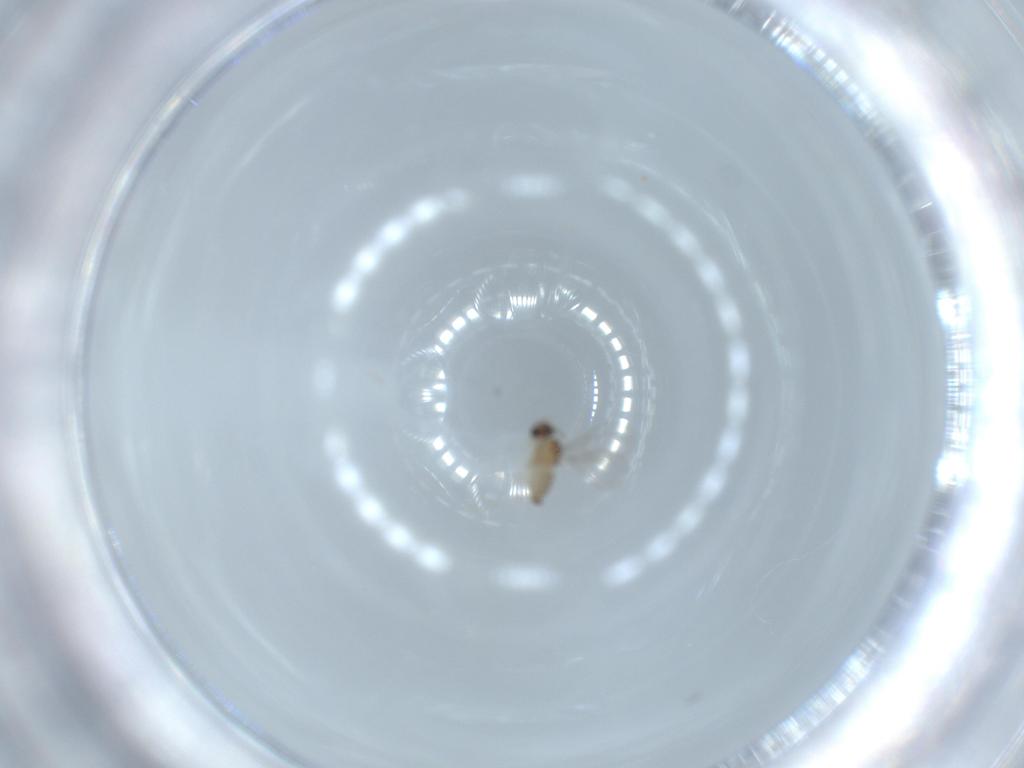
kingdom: Animalia
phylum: Arthropoda
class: Insecta
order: Diptera
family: Cecidomyiidae
